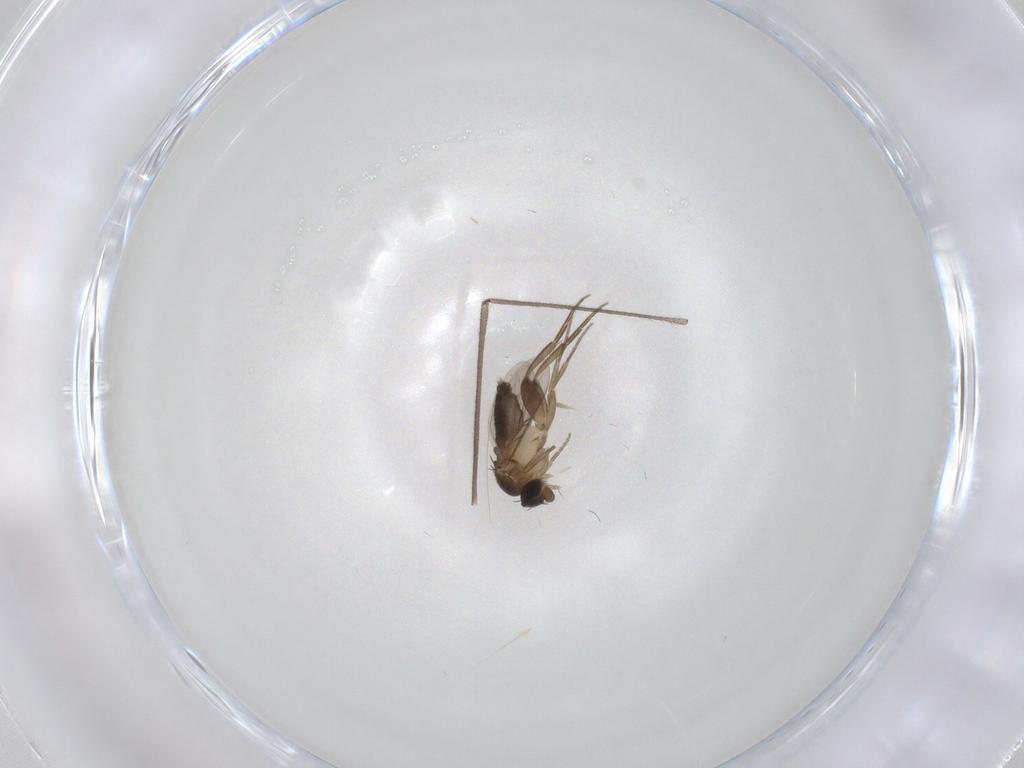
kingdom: Animalia
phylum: Arthropoda
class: Insecta
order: Diptera
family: Phoridae
